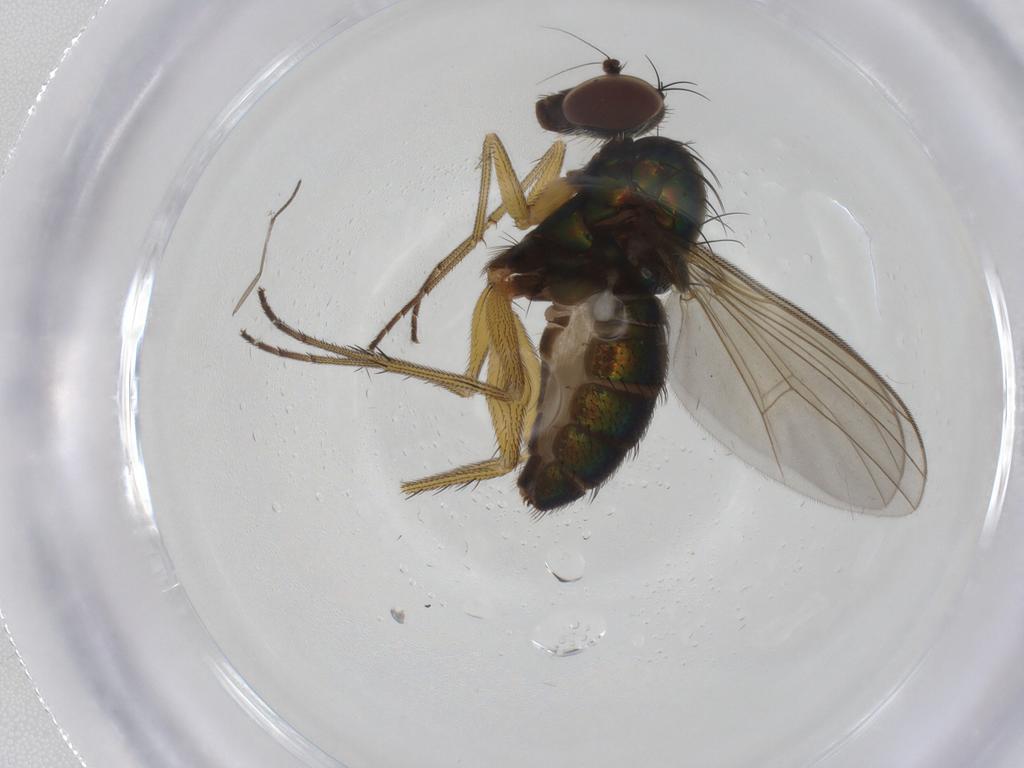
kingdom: Animalia
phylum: Arthropoda
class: Insecta
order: Diptera
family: Dolichopodidae
